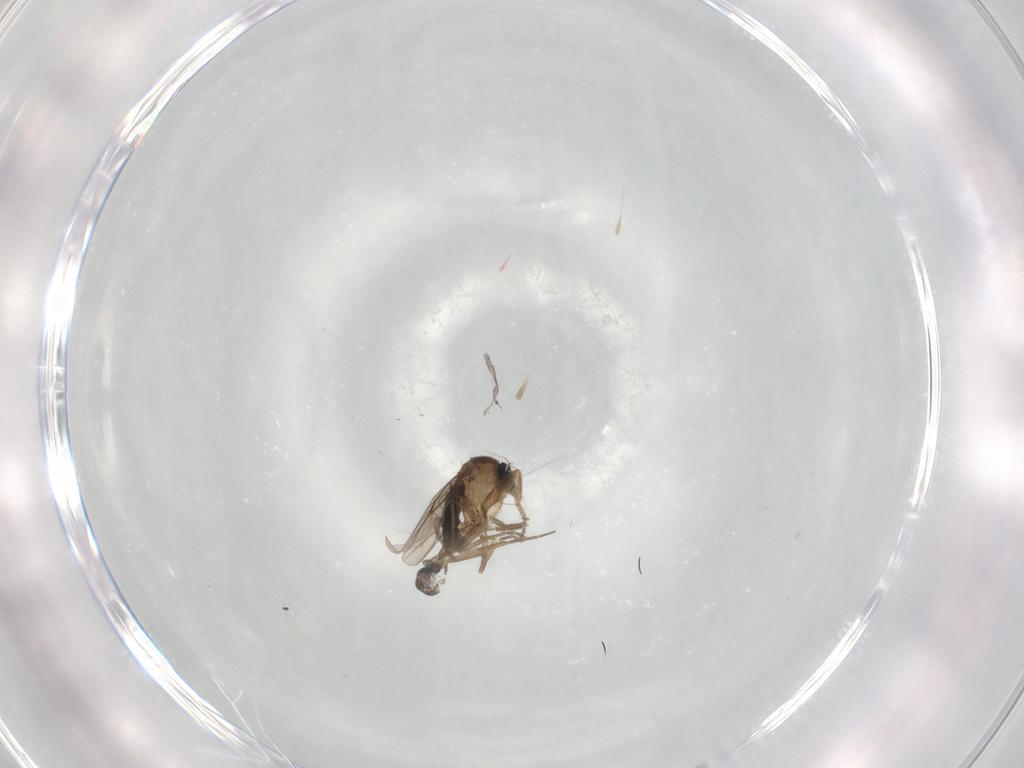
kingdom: Animalia
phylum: Arthropoda
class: Insecta
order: Diptera
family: Phoridae
